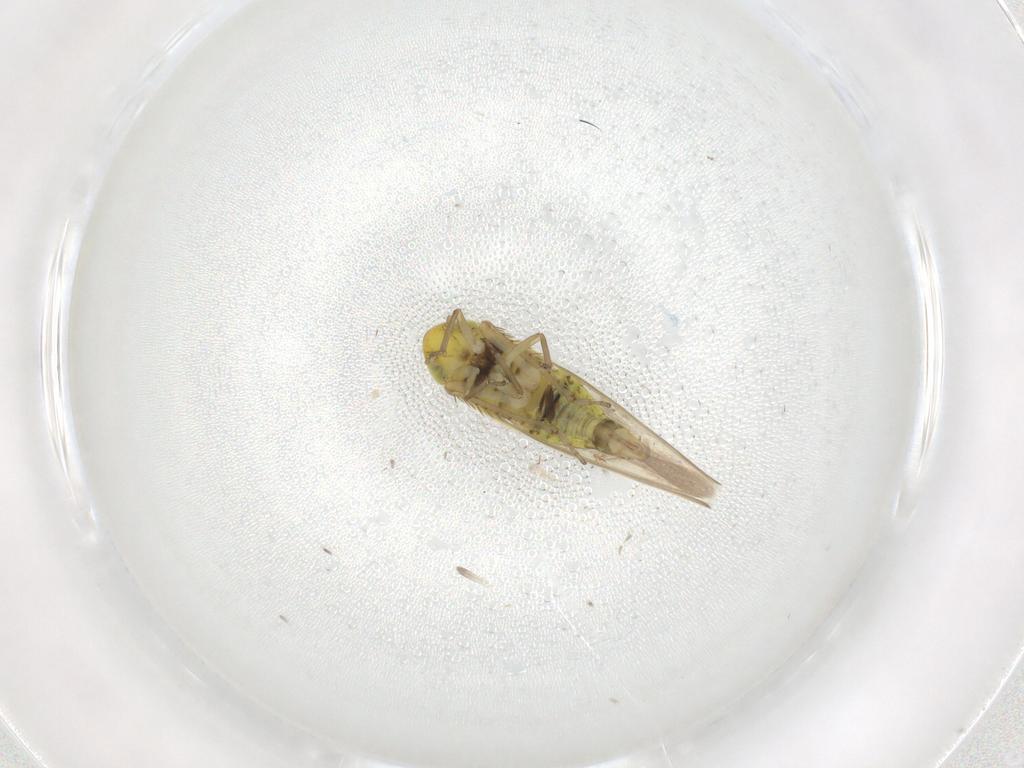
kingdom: Animalia
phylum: Arthropoda
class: Insecta
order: Hemiptera
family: Cicadellidae
